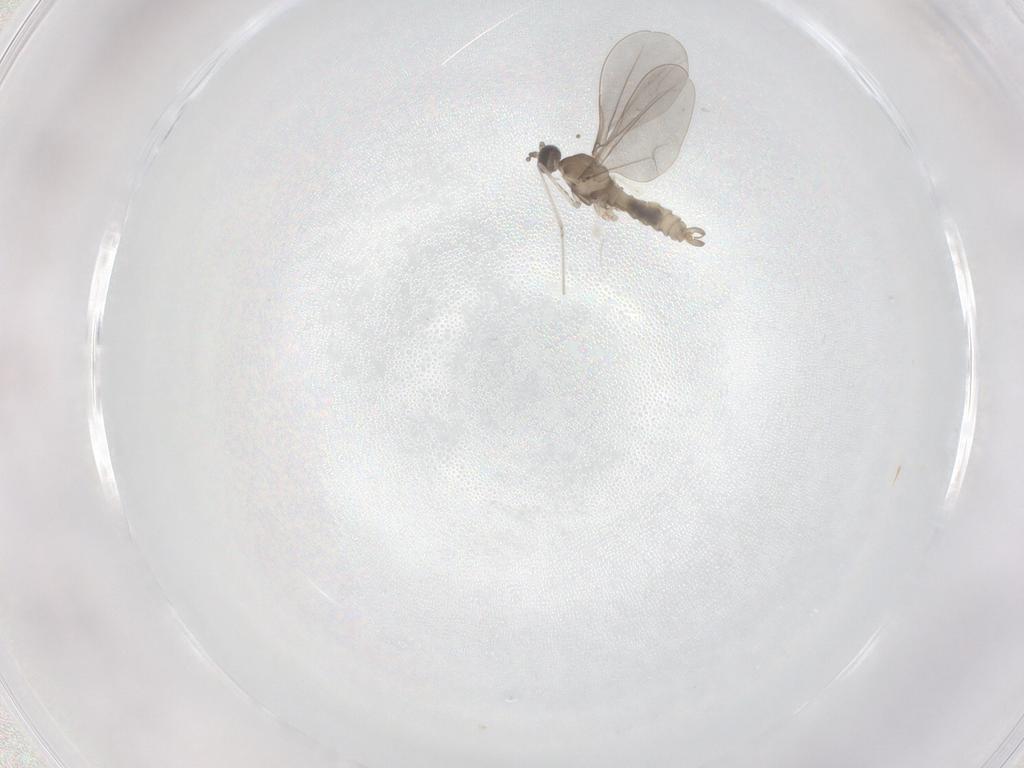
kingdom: Animalia
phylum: Arthropoda
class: Insecta
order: Diptera
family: Cecidomyiidae
